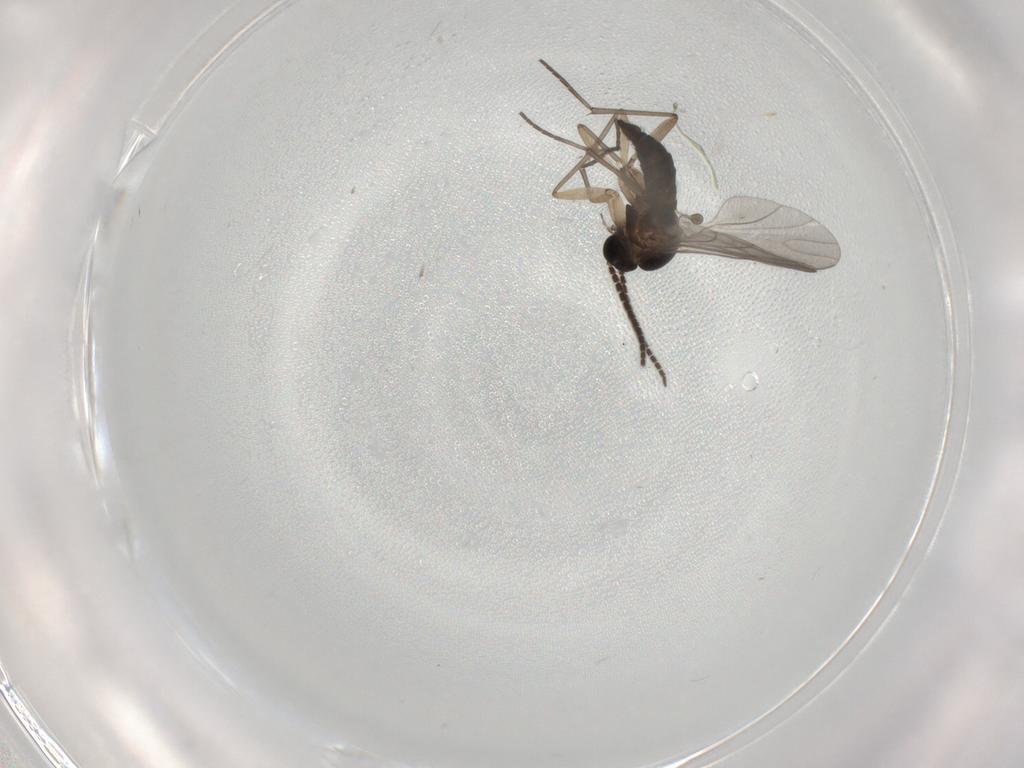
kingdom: Animalia
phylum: Arthropoda
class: Insecta
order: Diptera
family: Sciaridae
